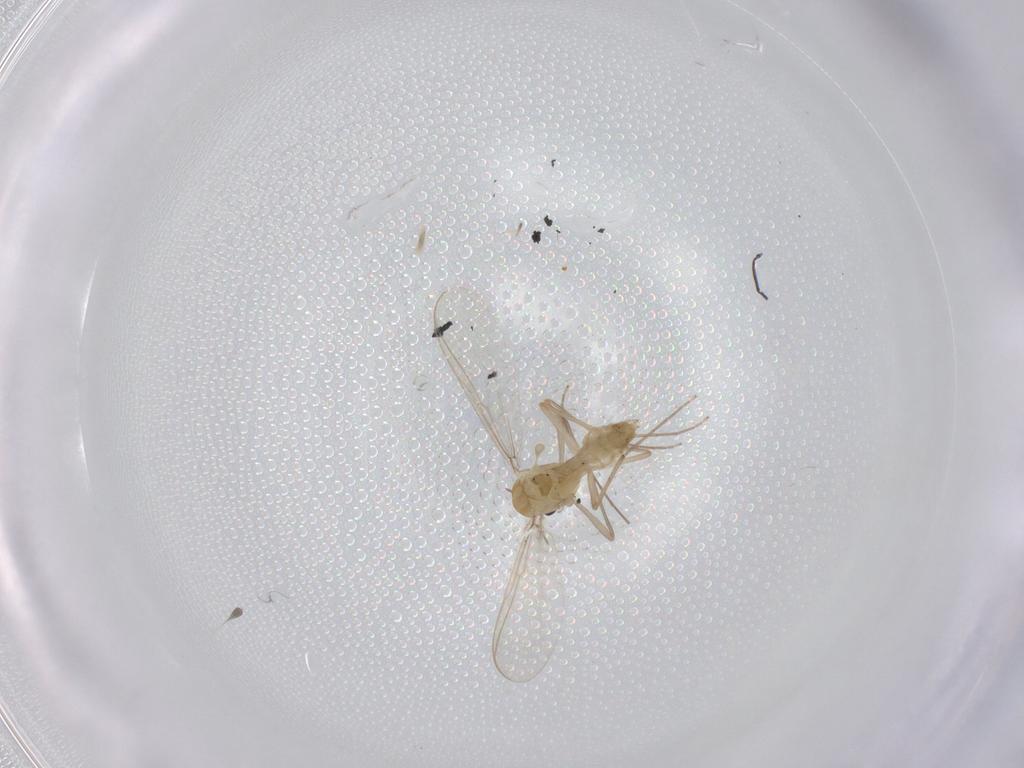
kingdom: Animalia
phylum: Arthropoda
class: Insecta
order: Diptera
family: Chironomidae
